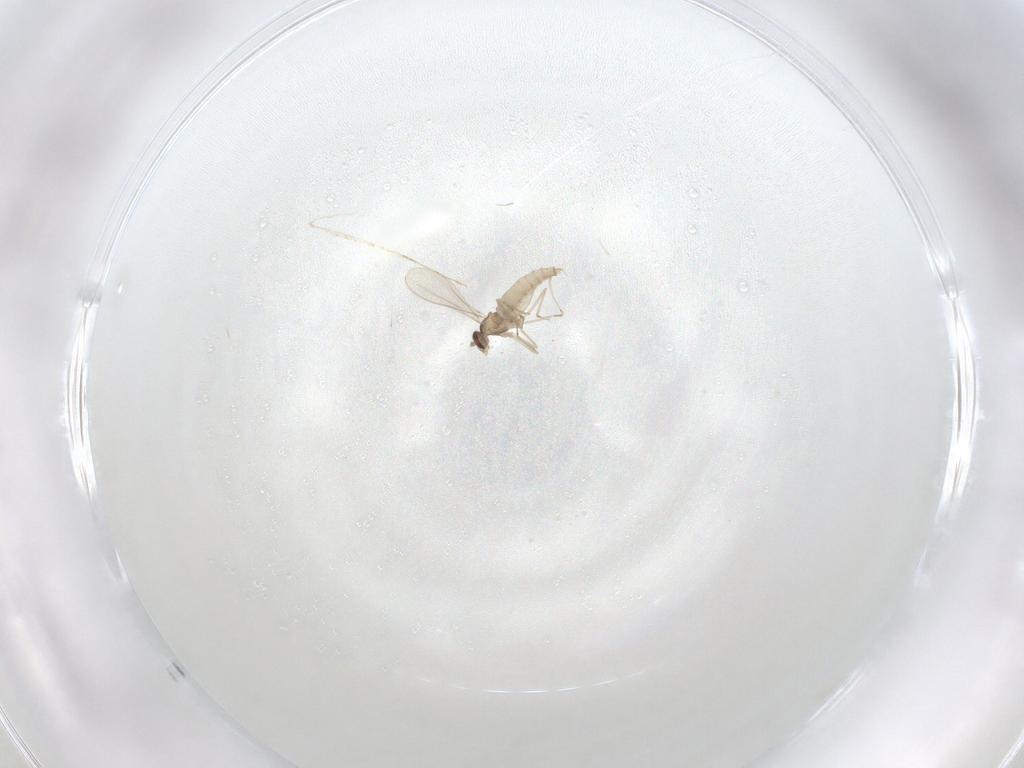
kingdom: Animalia
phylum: Arthropoda
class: Insecta
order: Diptera
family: Cecidomyiidae
